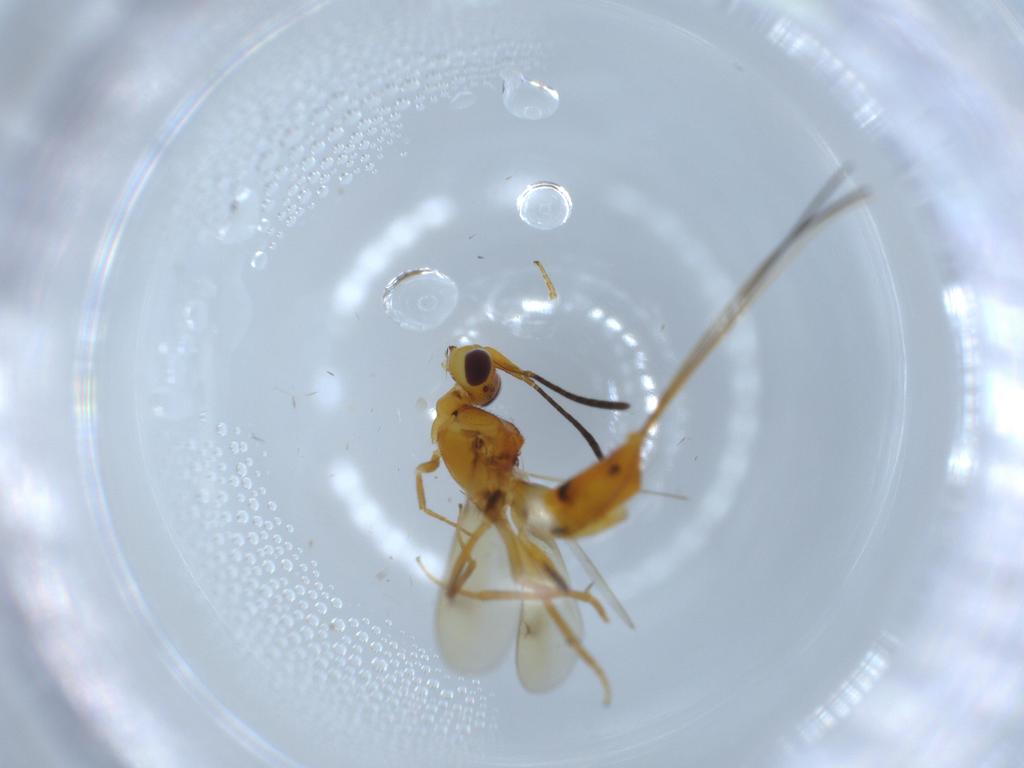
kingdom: Animalia
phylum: Arthropoda
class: Insecta
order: Hymenoptera
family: Eupelmidae
